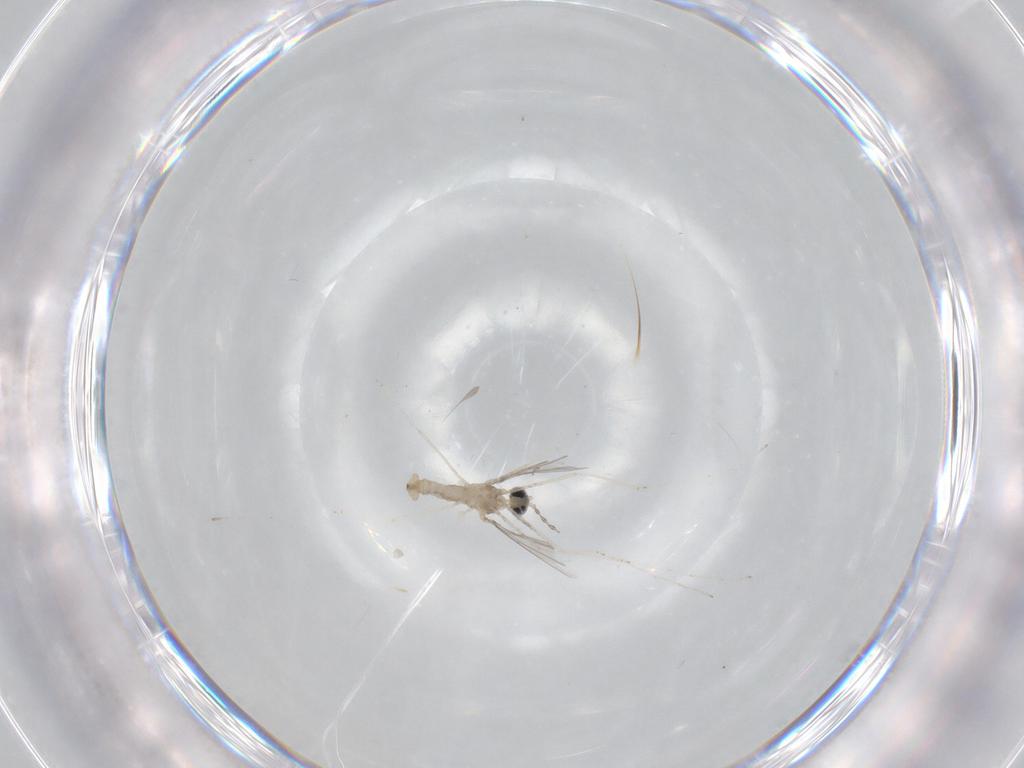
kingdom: Animalia
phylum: Arthropoda
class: Insecta
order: Diptera
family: Cecidomyiidae
